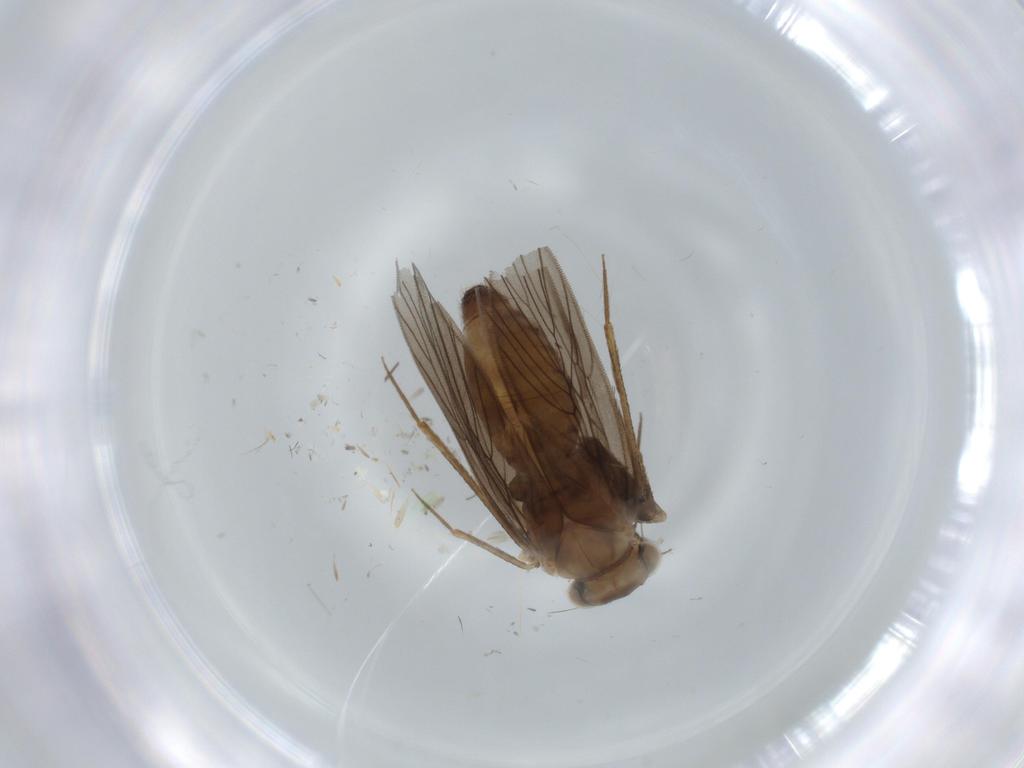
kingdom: Animalia
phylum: Arthropoda
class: Insecta
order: Psocodea
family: Lepidopsocidae
